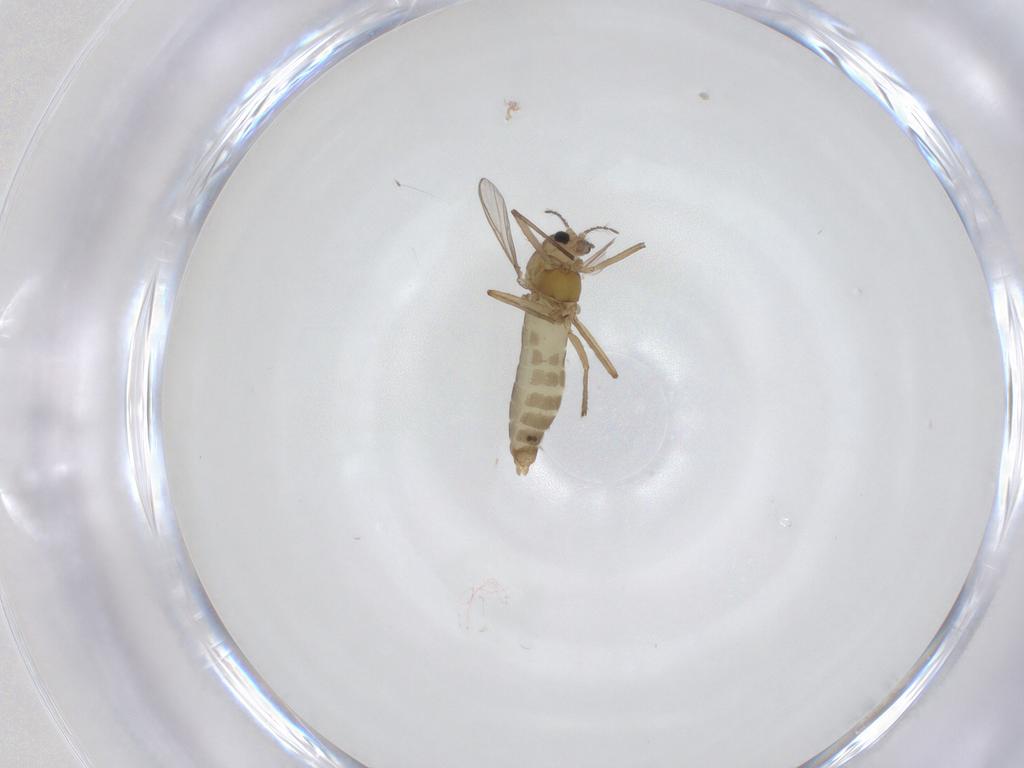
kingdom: Animalia
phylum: Arthropoda
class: Insecta
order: Diptera
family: Chironomidae
